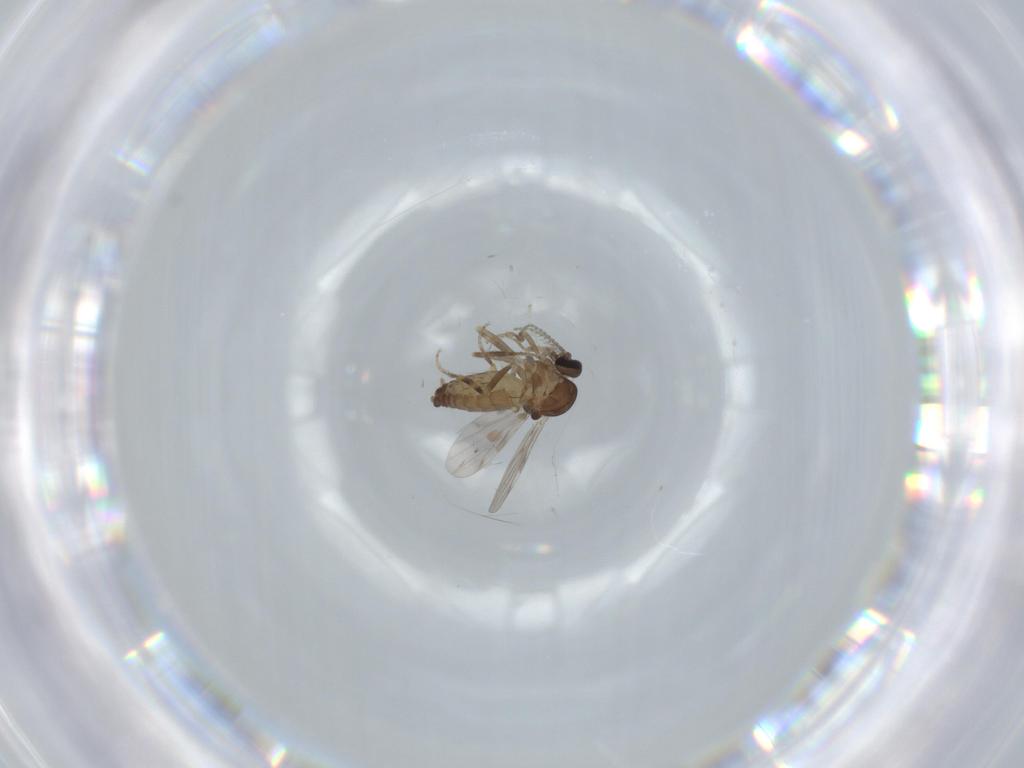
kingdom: Animalia
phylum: Arthropoda
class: Insecta
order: Diptera
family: Ceratopogonidae
